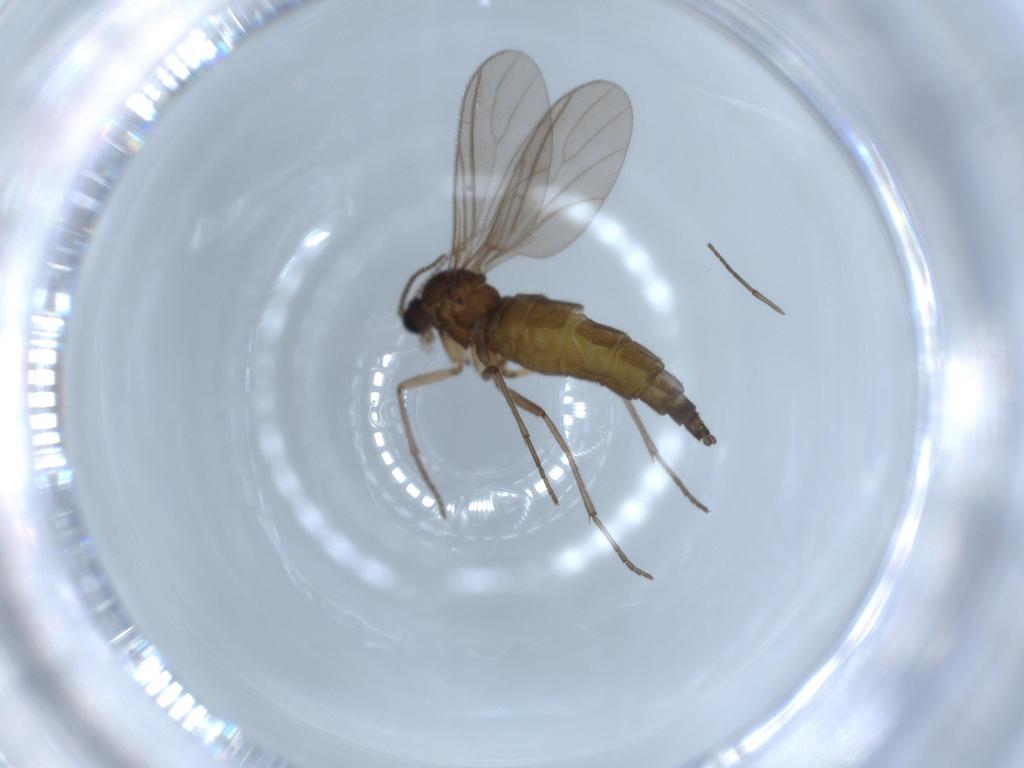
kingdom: Animalia
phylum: Arthropoda
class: Insecta
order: Diptera
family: Sciaridae
